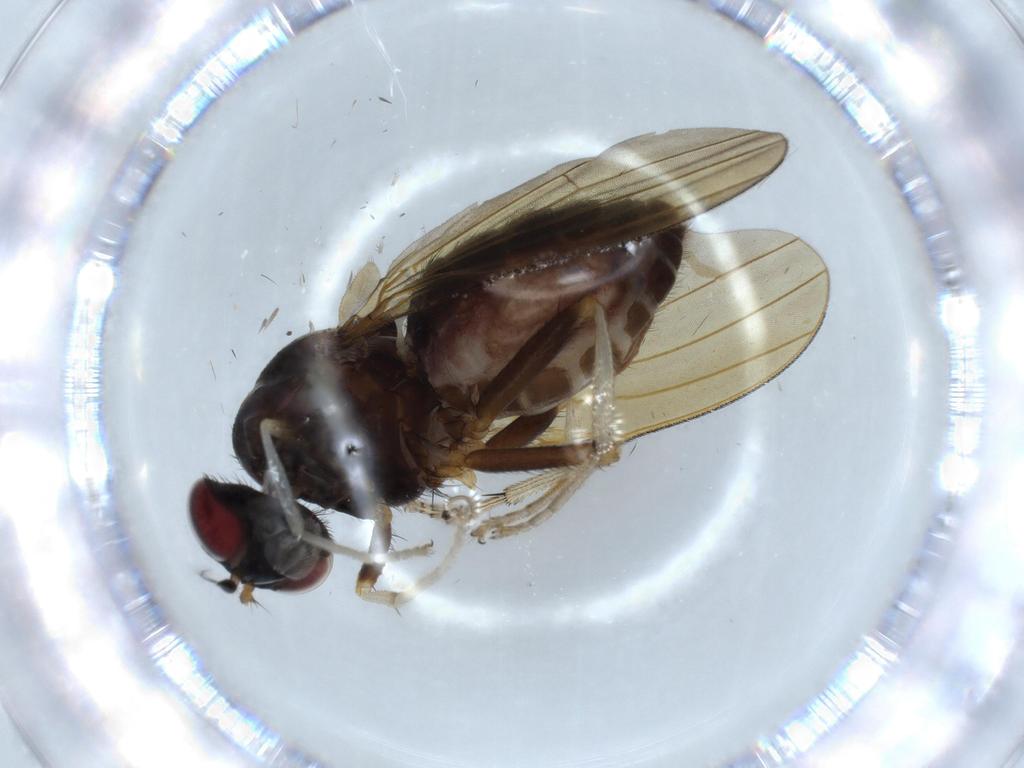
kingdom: Animalia
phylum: Arthropoda
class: Insecta
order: Diptera
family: Sciaridae
